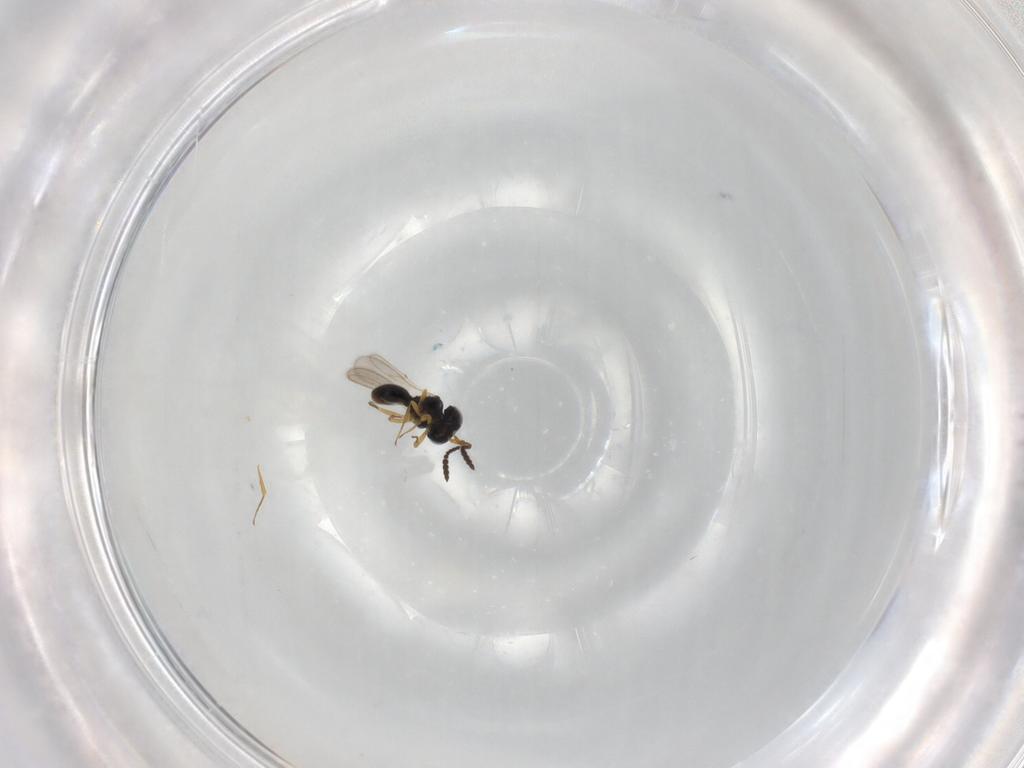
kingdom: Animalia
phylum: Arthropoda
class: Insecta
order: Hymenoptera
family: Scelionidae
